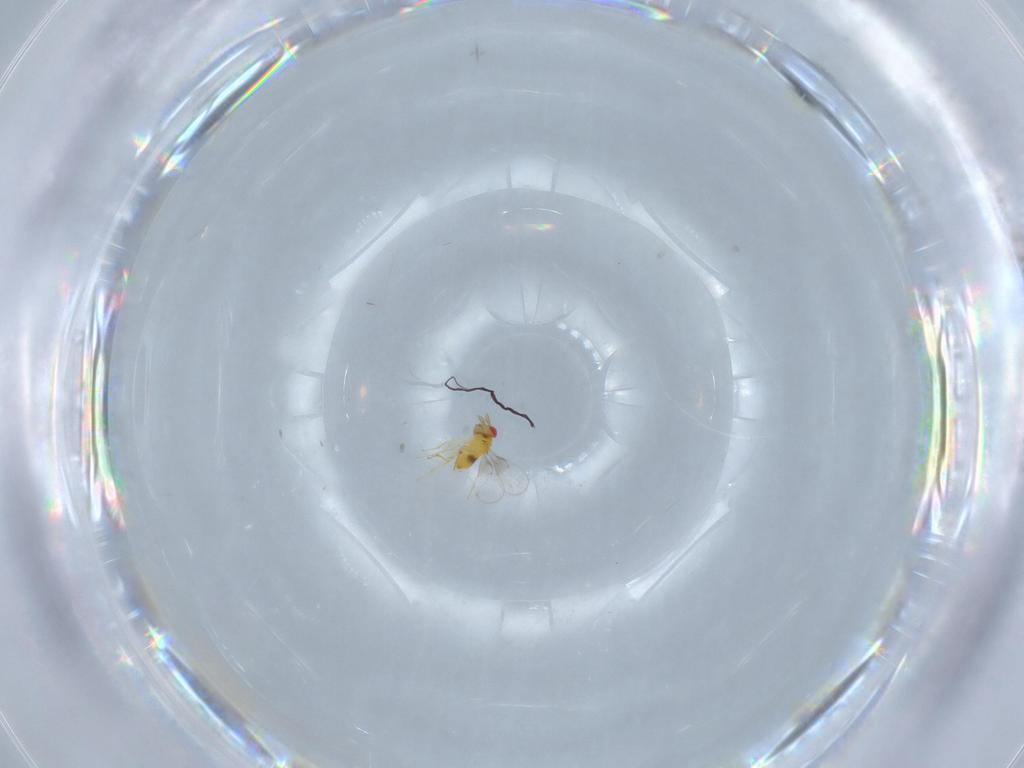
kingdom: Animalia
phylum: Arthropoda
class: Insecta
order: Hymenoptera
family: Trichogrammatidae
